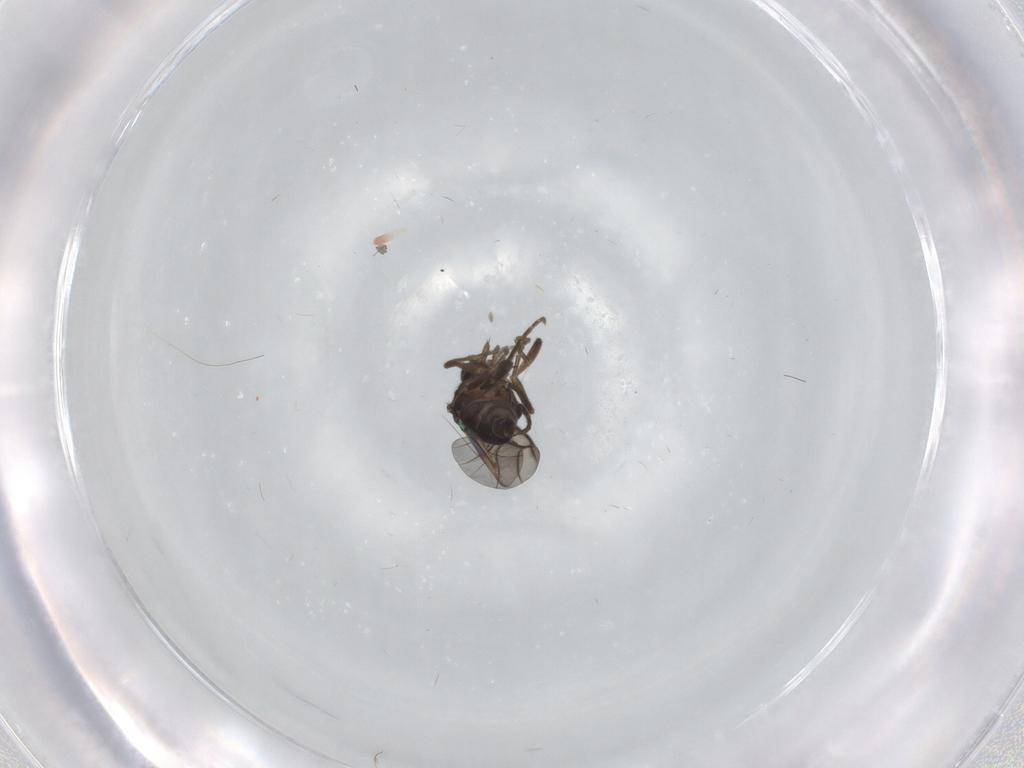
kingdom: Animalia
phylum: Arthropoda
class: Insecta
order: Diptera
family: Phoridae
